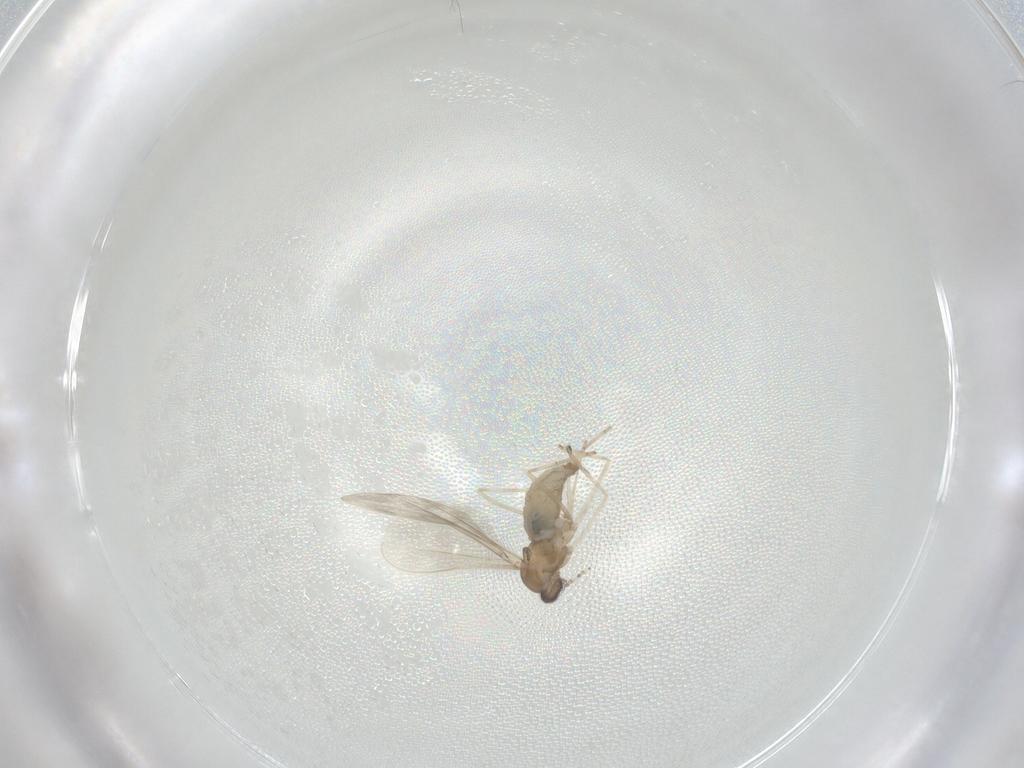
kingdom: Animalia
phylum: Arthropoda
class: Insecta
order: Diptera
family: Cecidomyiidae
